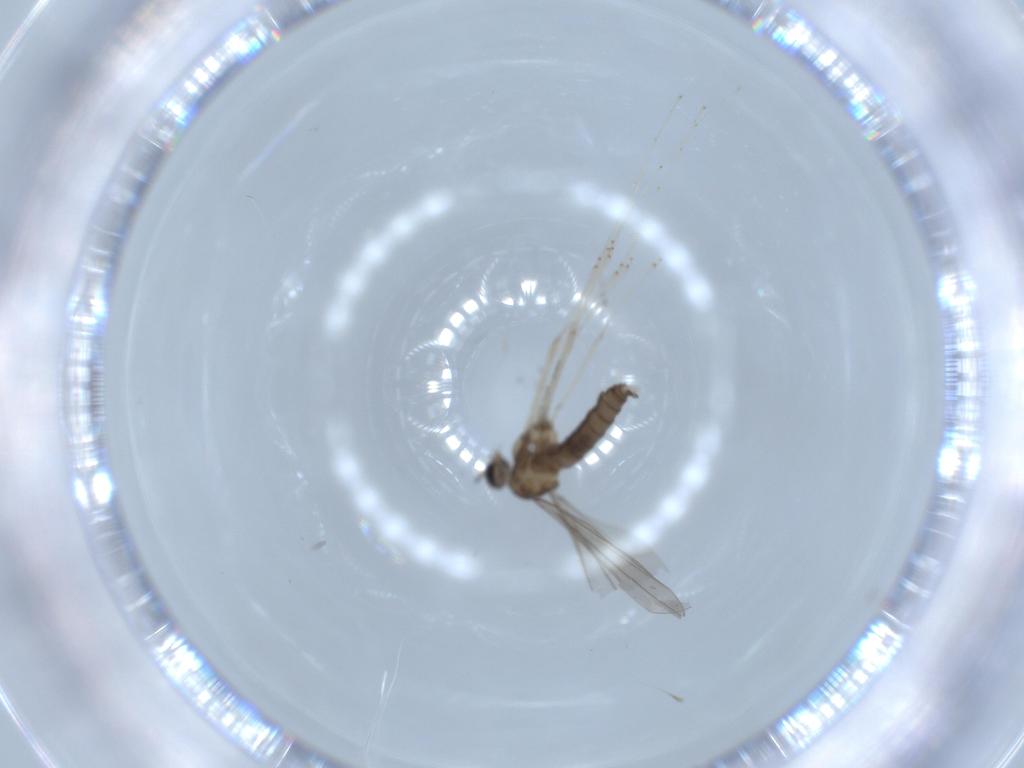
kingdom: Animalia
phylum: Arthropoda
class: Insecta
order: Diptera
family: Cecidomyiidae
